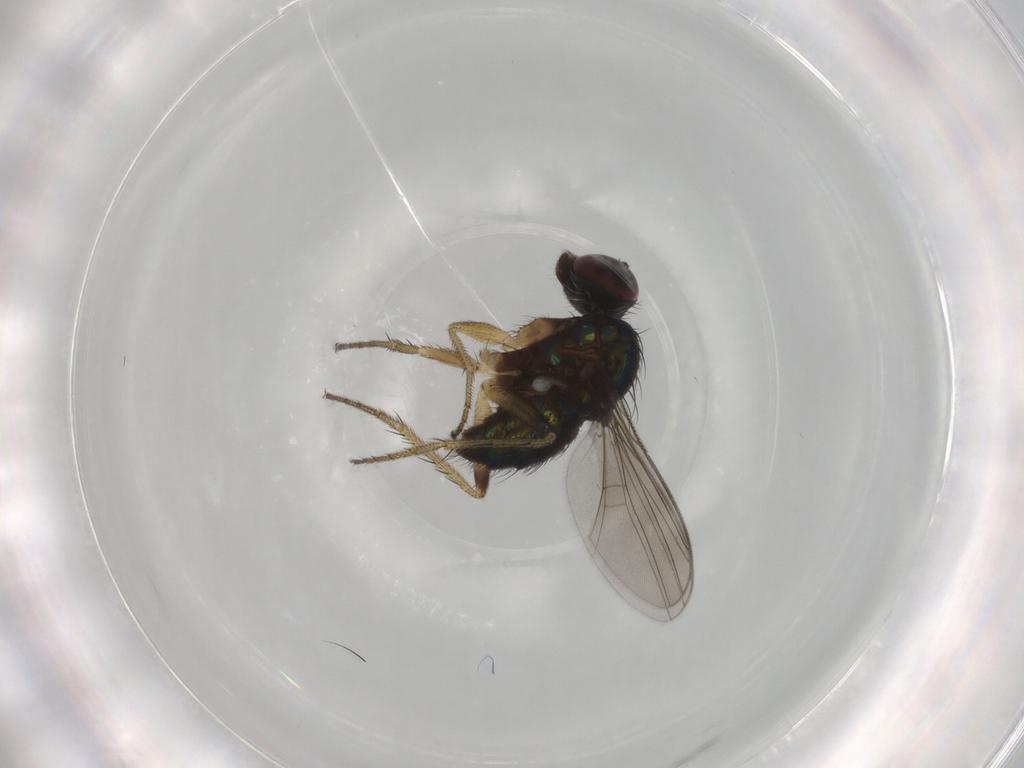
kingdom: Animalia
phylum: Arthropoda
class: Insecta
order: Diptera
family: Dolichopodidae
